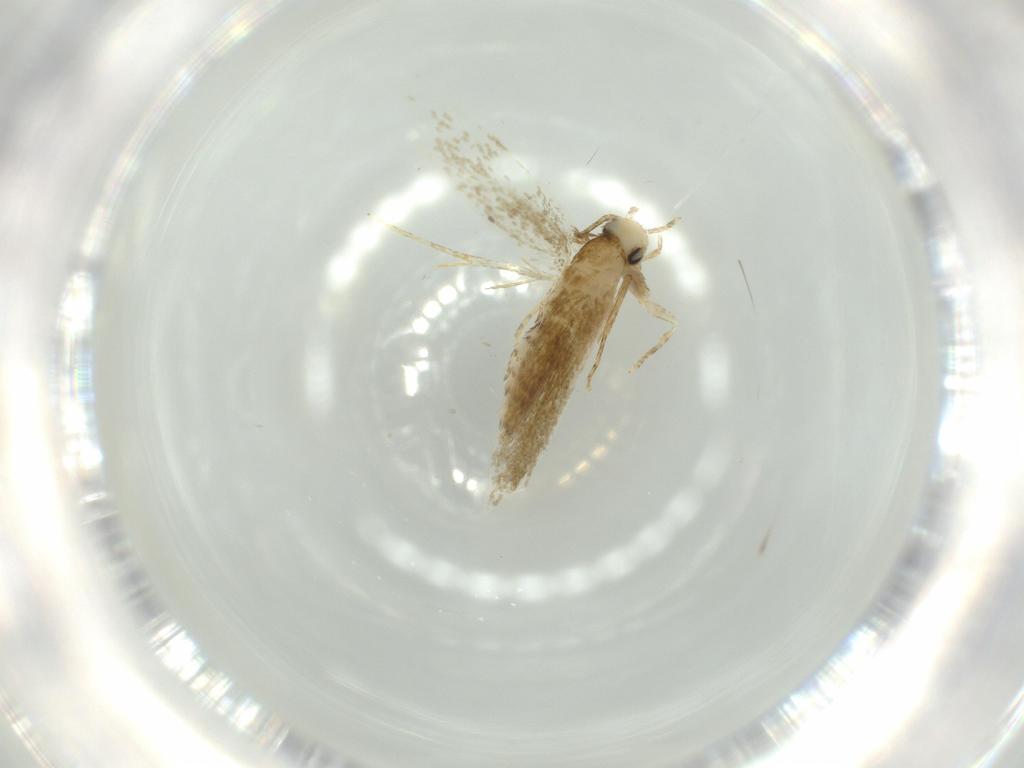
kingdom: Animalia
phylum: Arthropoda
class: Insecta
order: Lepidoptera
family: Tineidae
